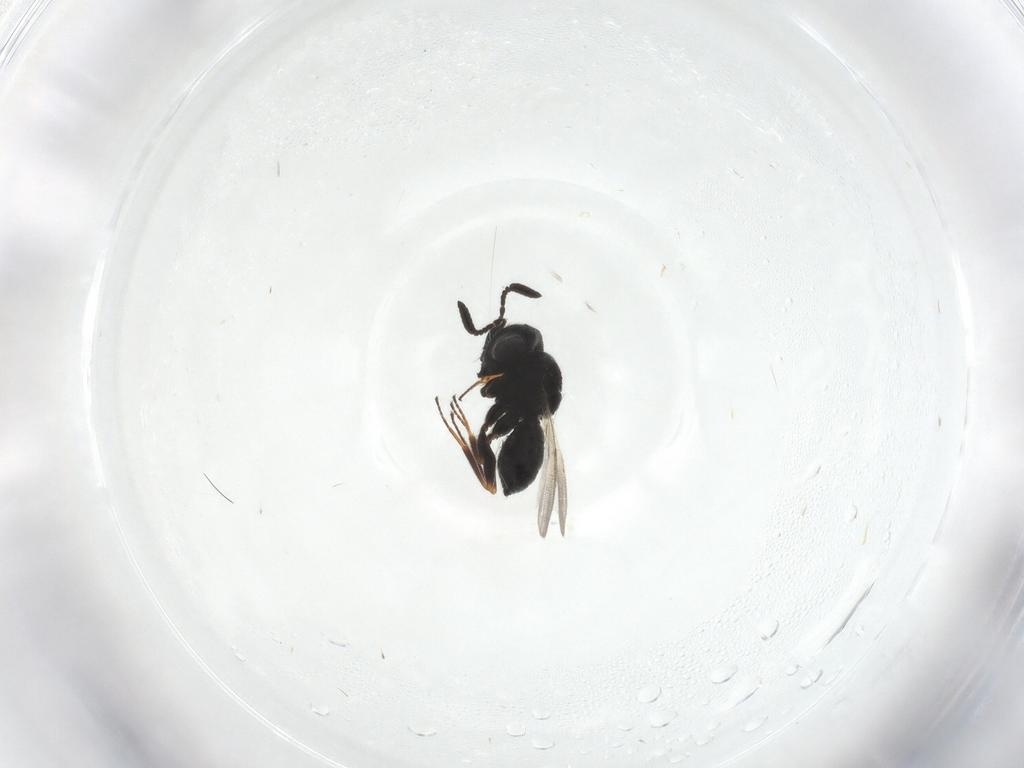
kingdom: Animalia
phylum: Arthropoda
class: Insecta
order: Hymenoptera
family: Scelionidae
